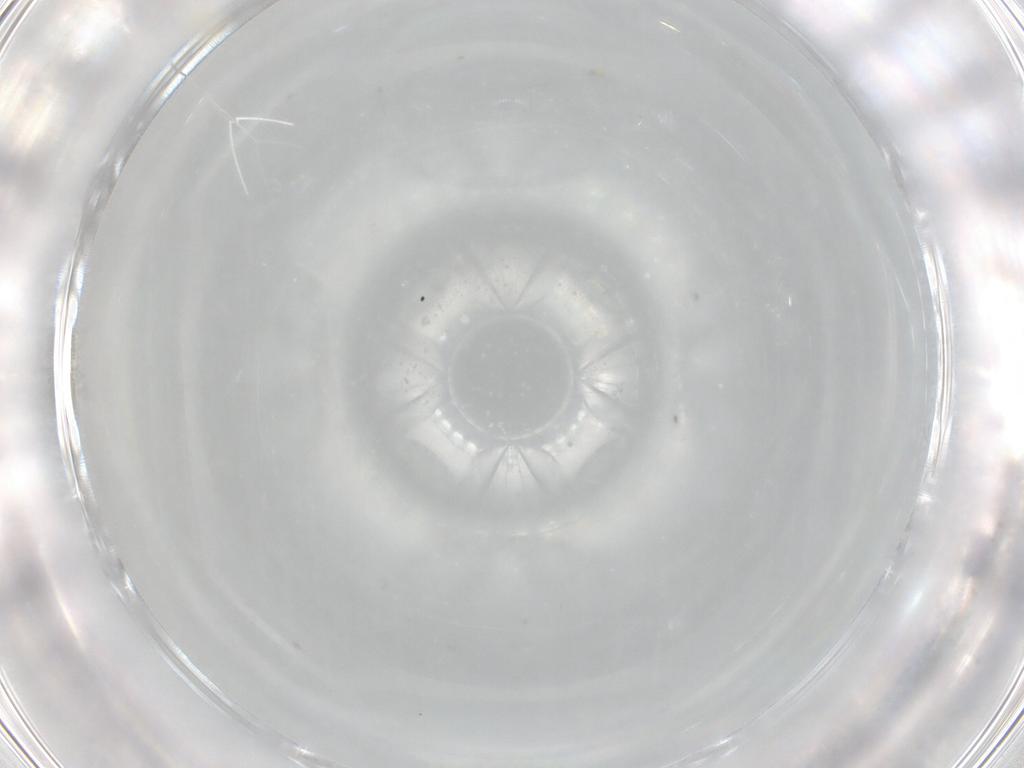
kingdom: Animalia
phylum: Arthropoda
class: Arachnida
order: Trombidiformes
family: Eupodidae
